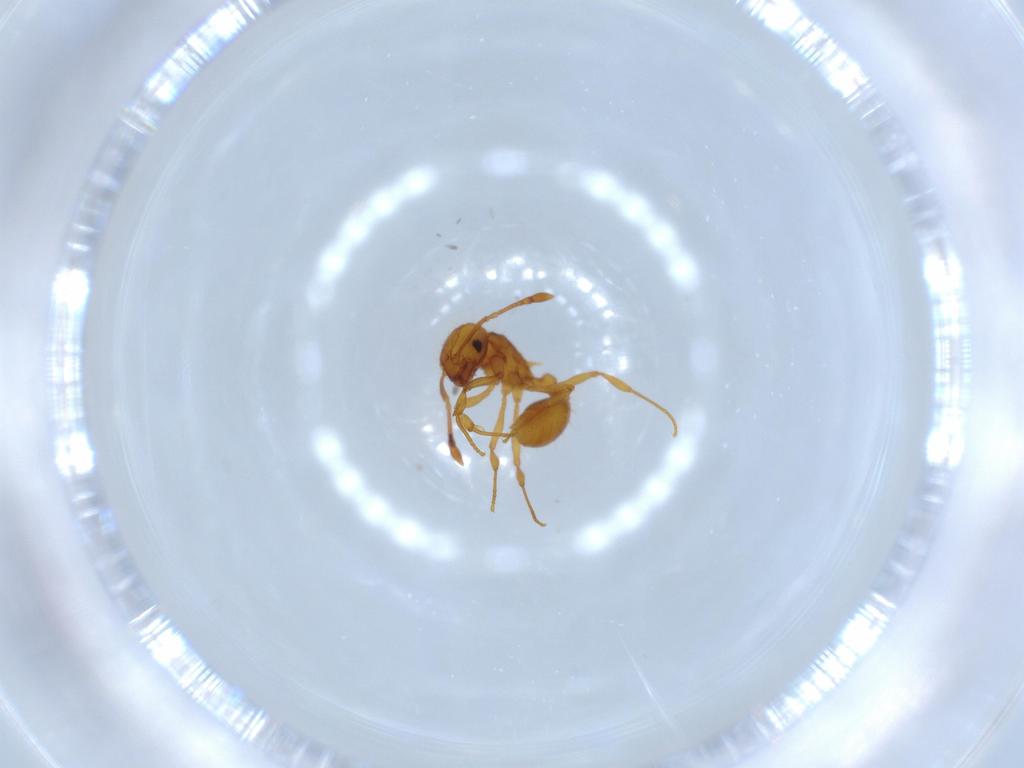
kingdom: Animalia
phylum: Arthropoda
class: Insecta
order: Hymenoptera
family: Formicidae
